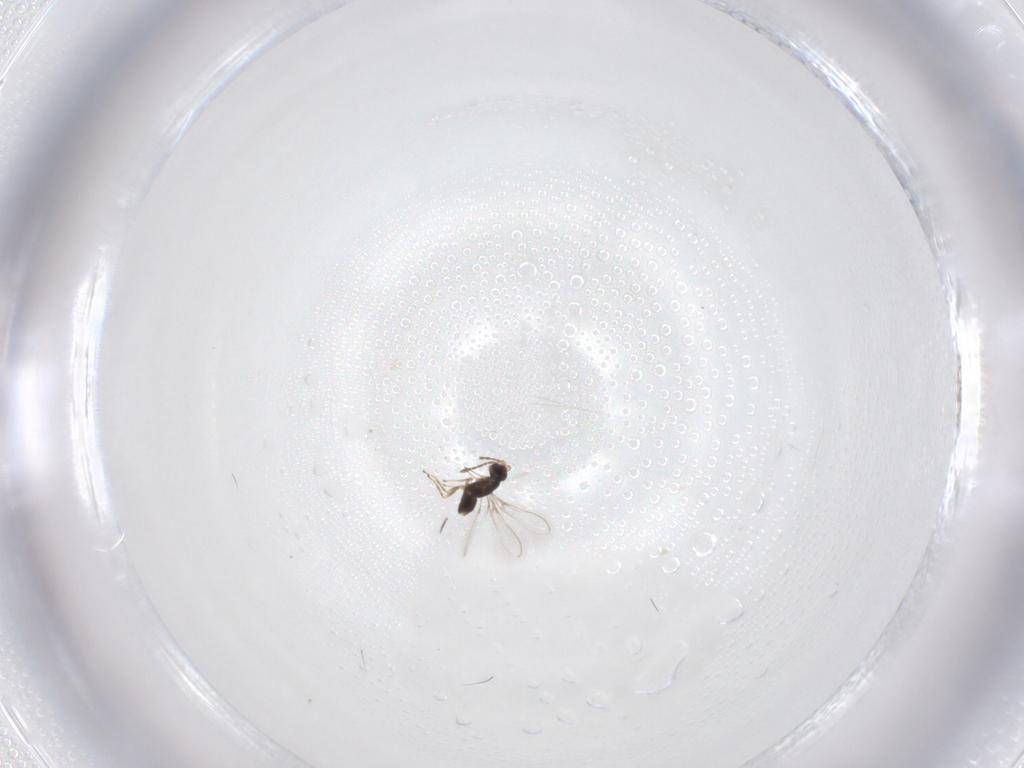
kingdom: Animalia
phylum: Arthropoda
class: Insecta
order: Hymenoptera
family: Mymaridae
